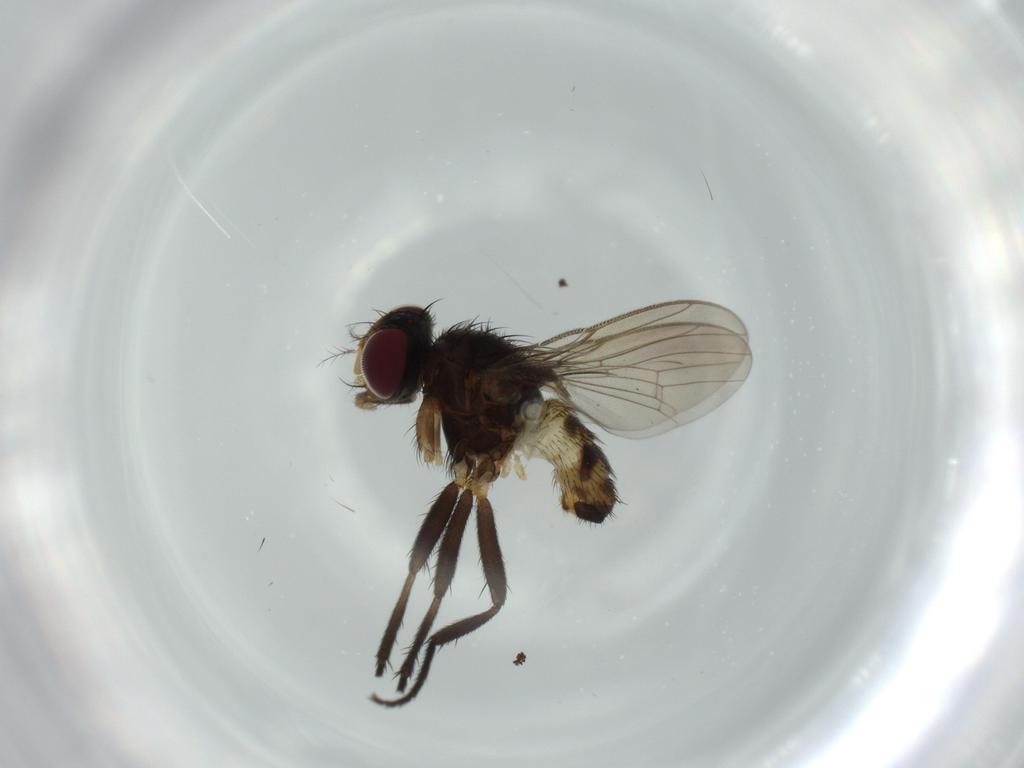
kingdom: Animalia
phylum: Arthropoda
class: Insecta
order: Diptera
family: Anthomyiidae
